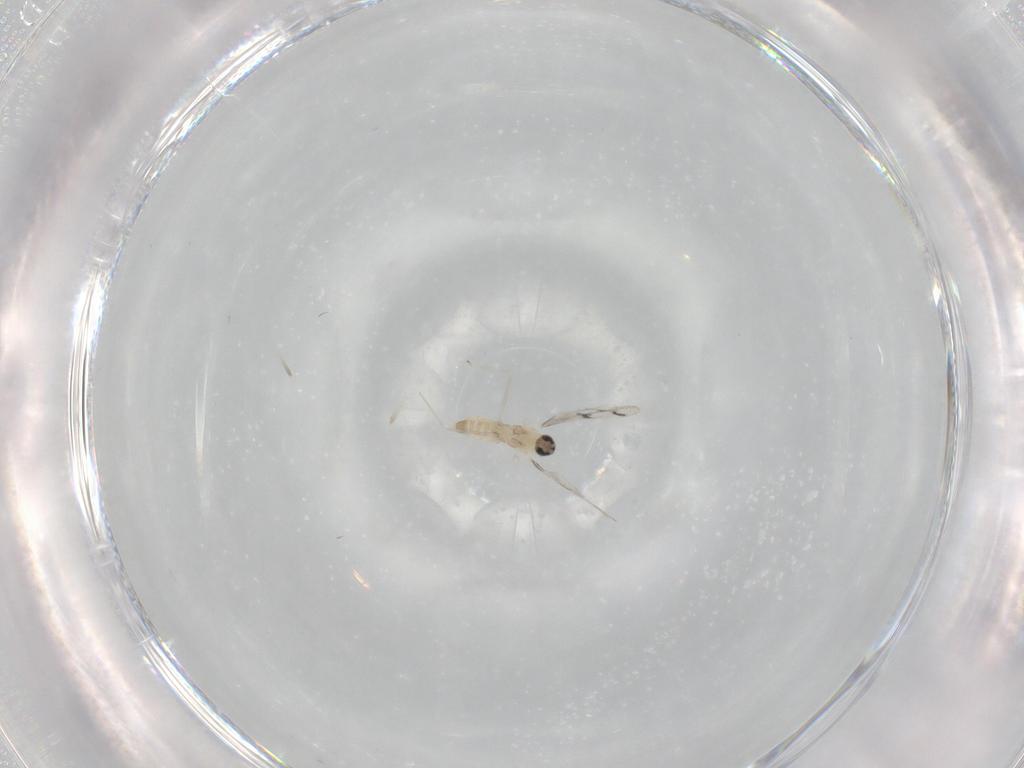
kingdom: Animalia
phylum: Arthropoda
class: Insecta
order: Diptera
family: Cecidomyiidae
